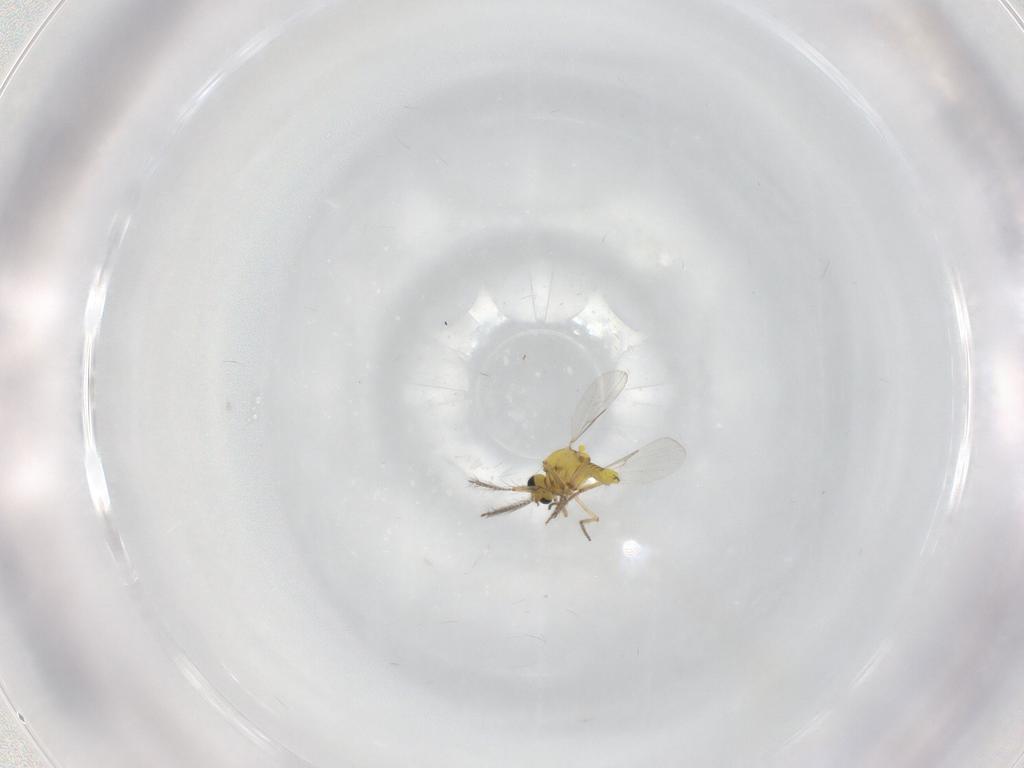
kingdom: Animalia
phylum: Arthropoda
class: Insecta
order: Diptera
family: Ceratopogonidae
